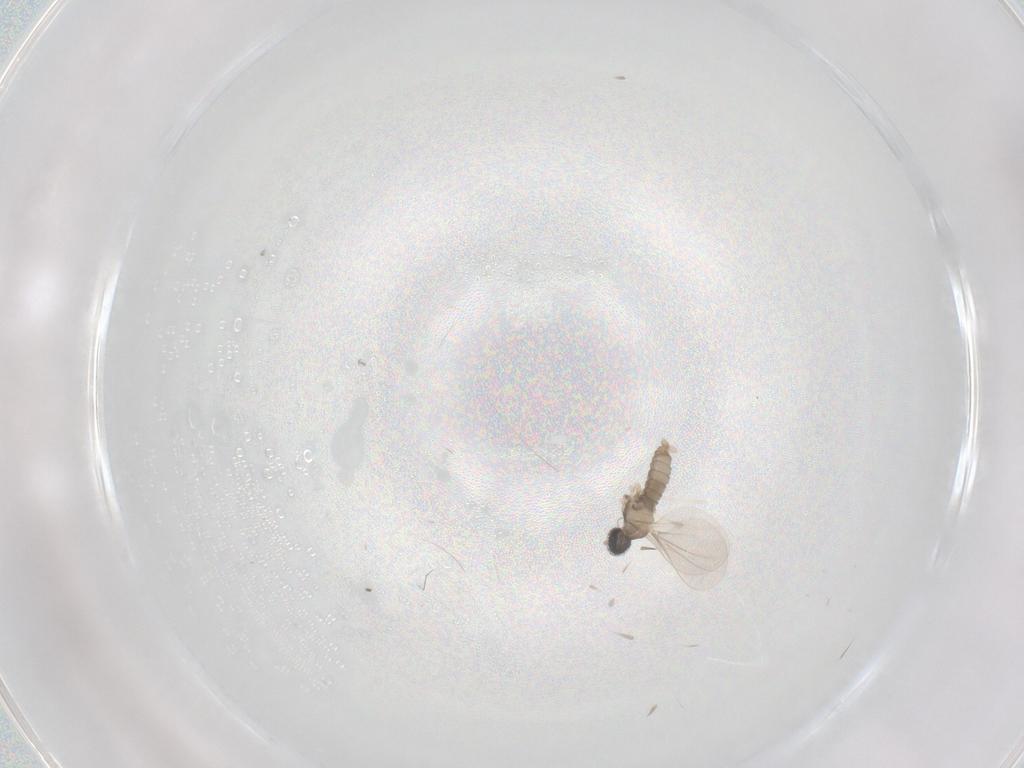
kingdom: Animalia
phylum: Arthropoda
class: Insecta
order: Diptera
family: Cecidomyiidae
